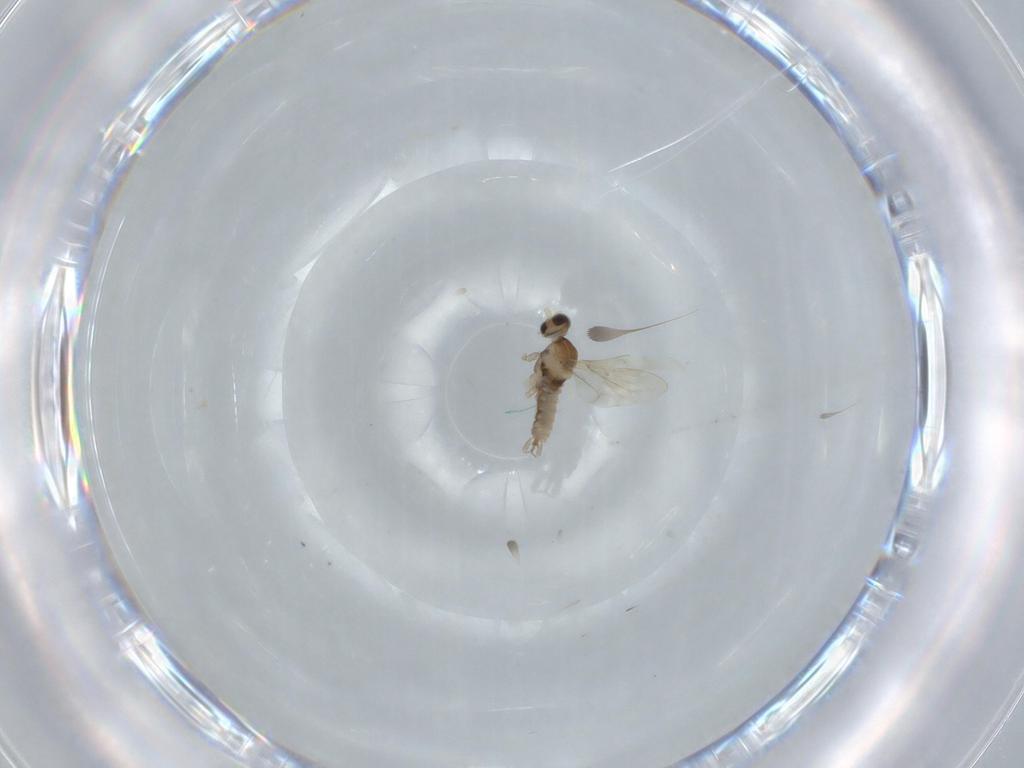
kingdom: Animalia
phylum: Arthropoda
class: Insecta
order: Diptera
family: Cecidomyiidae
